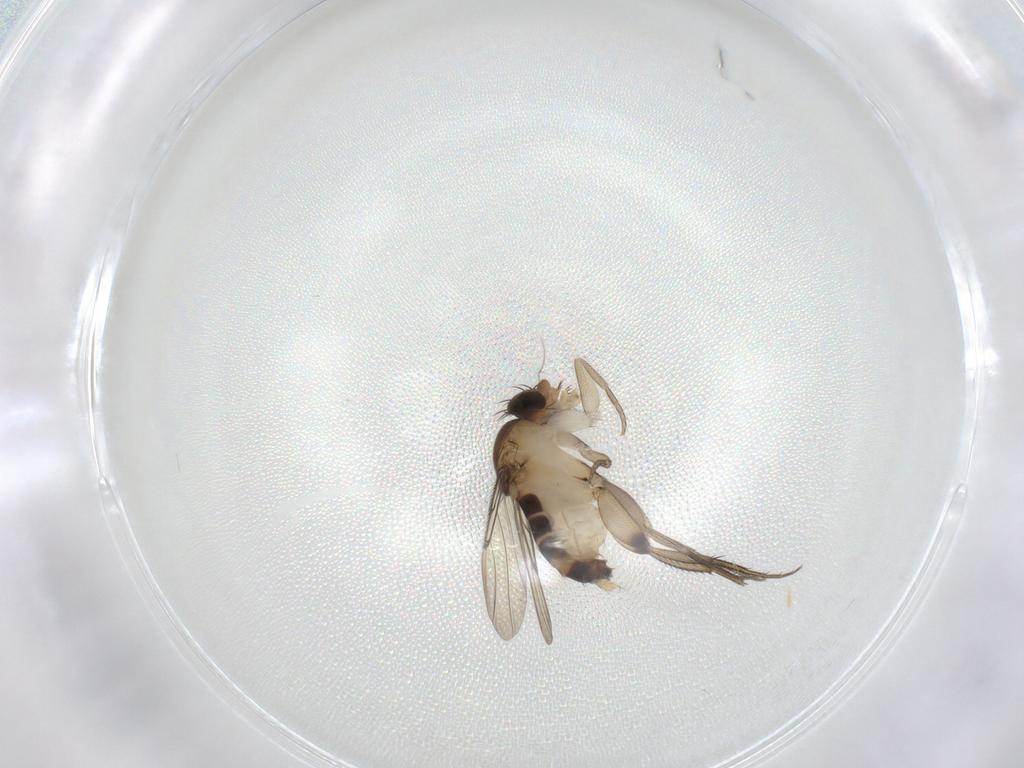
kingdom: Animalia
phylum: Arthropoda
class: Insecta
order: Diptera
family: Phoridae
